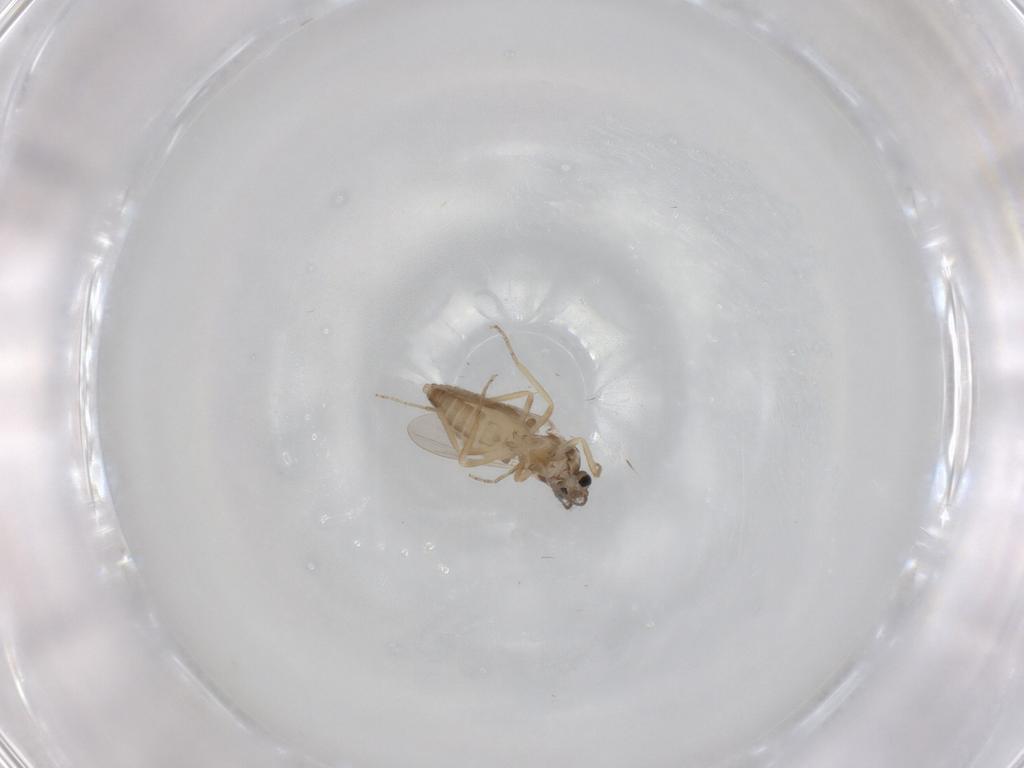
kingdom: Animalia
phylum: Arthropoda
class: Insecta
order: Diptera
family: Ceratopogonidae
